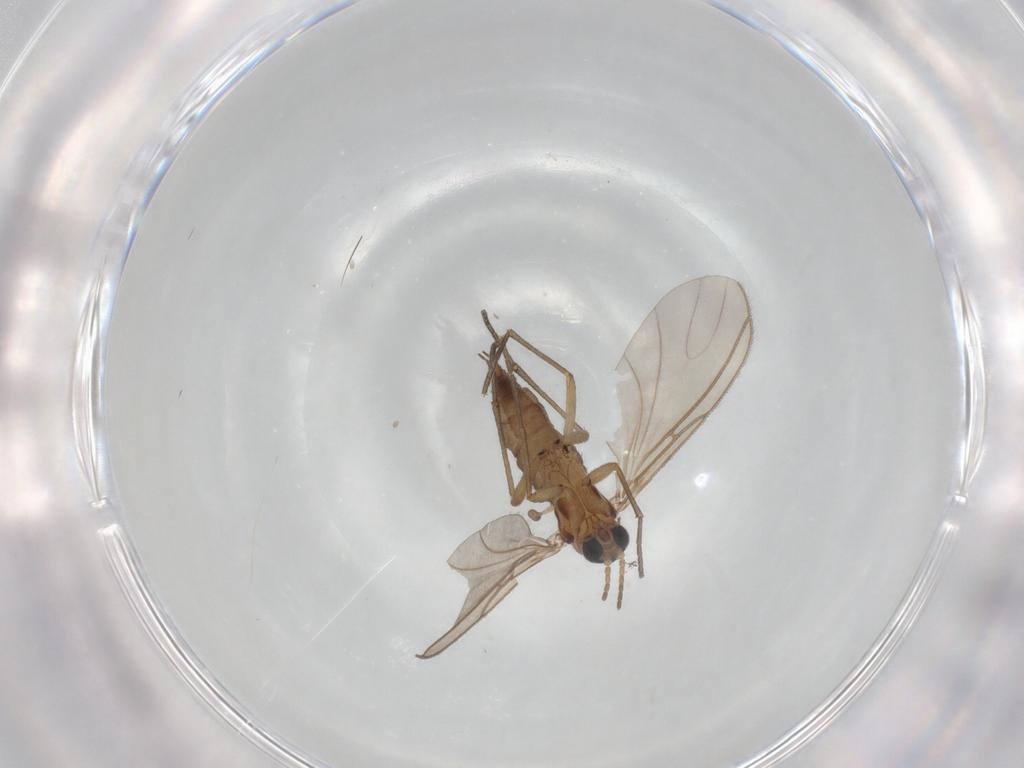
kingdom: Animalia
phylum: Arthropoda
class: Insecta
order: Diptera
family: Sciaridae
